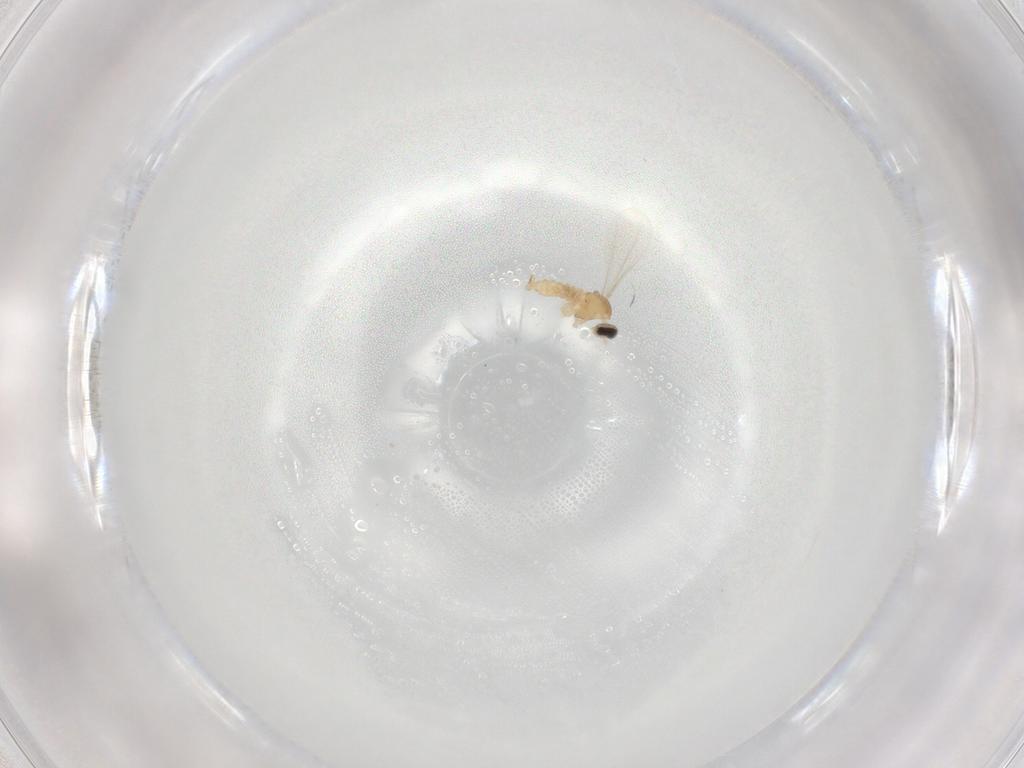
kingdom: Animalia
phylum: Arthropoda
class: Insecta
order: Diptera
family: Cecidomyiidae
